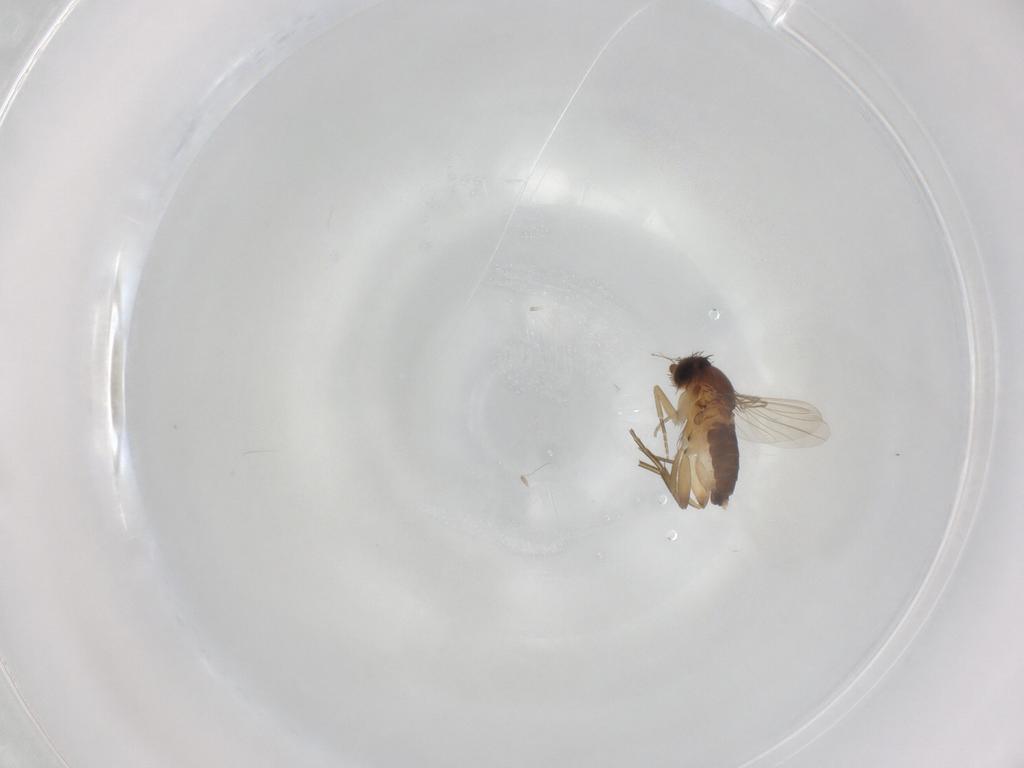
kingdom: Animalia
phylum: Arthropoda
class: Insecta
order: Diptera
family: Phoridae
